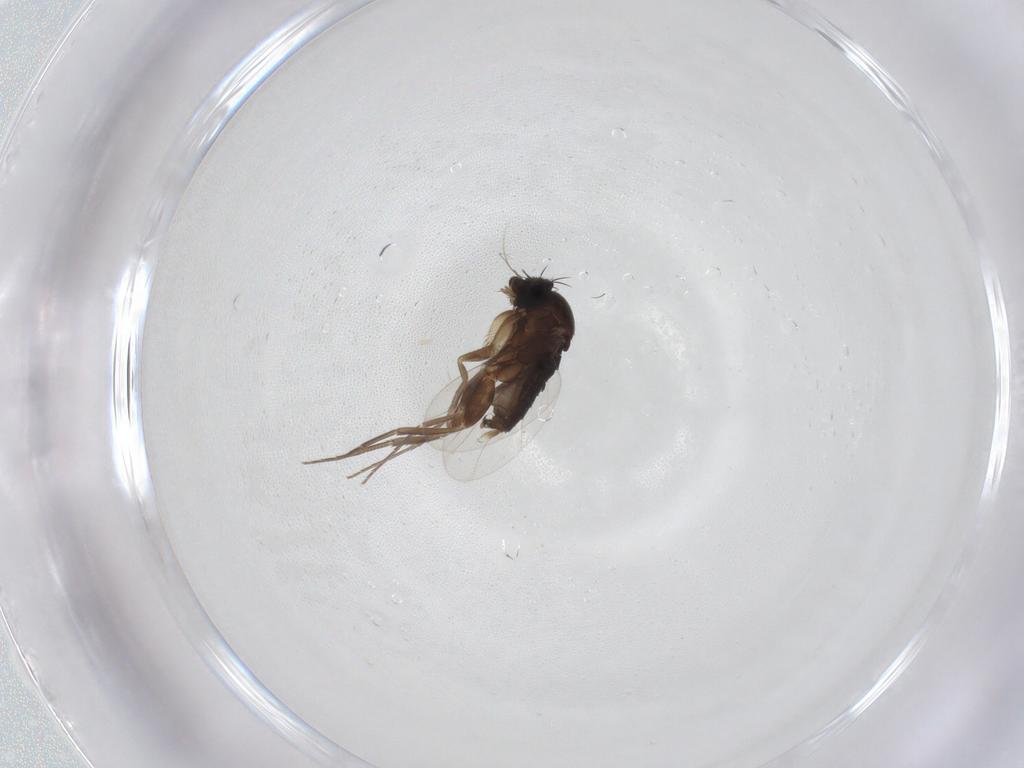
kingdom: Animalia
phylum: Arthropoda
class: Insecta
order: Diptera
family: Phoridae
